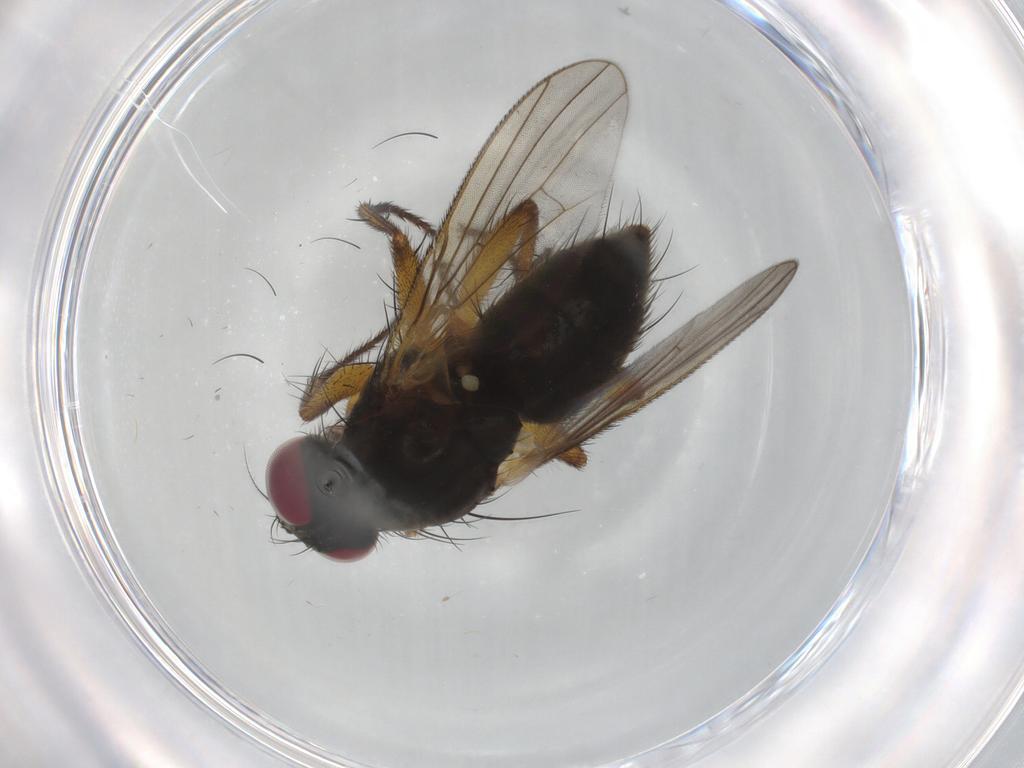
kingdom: Animalia
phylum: Arthropoda
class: Insecta
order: Diptera
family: Muscidae
